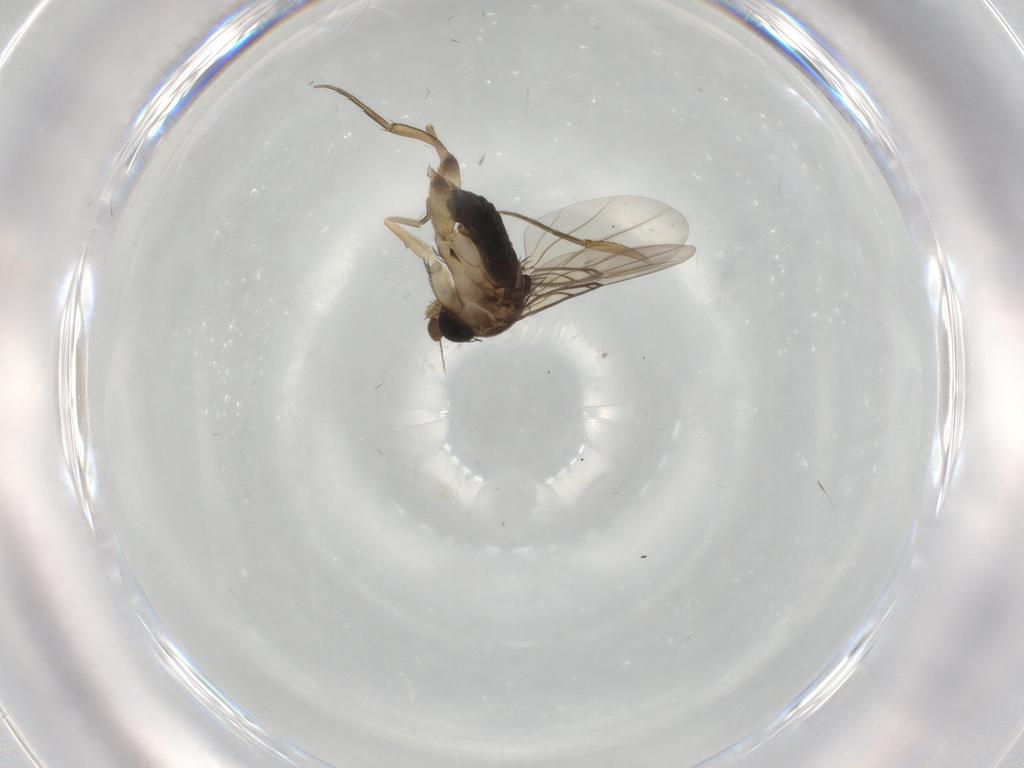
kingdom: Animalia
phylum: Arthropoda
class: Insecta
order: Diptera
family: Phoridae
